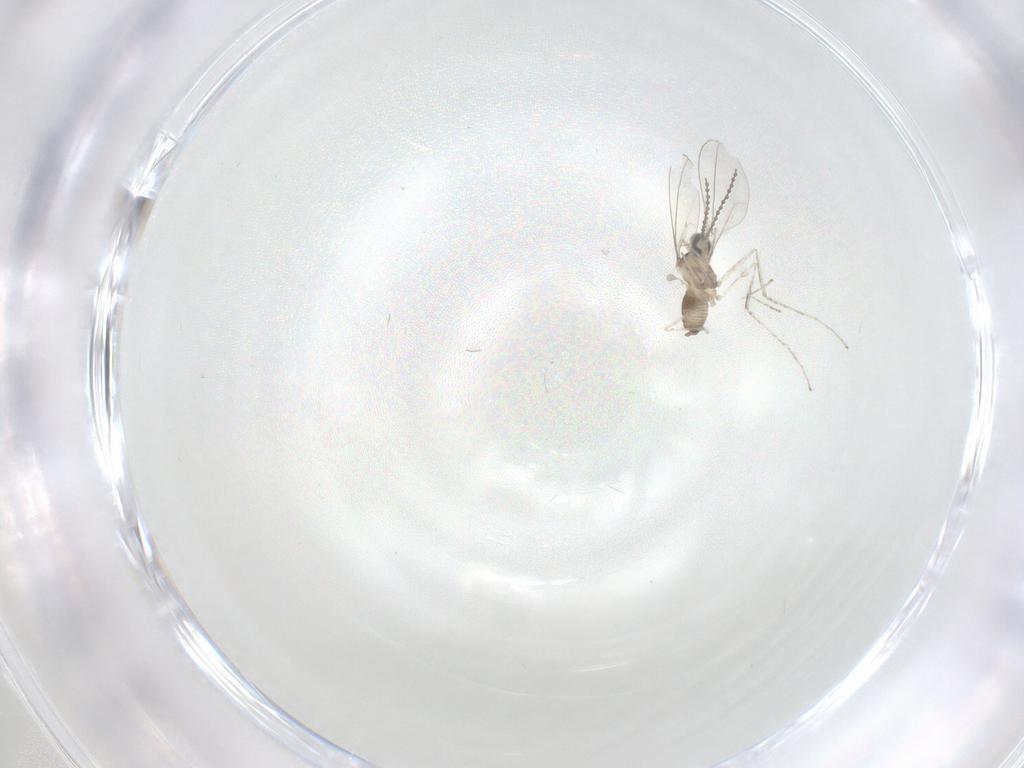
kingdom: Animalia
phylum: Arthropoda
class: Insecta
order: Diptera
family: Cecidomyiidae
